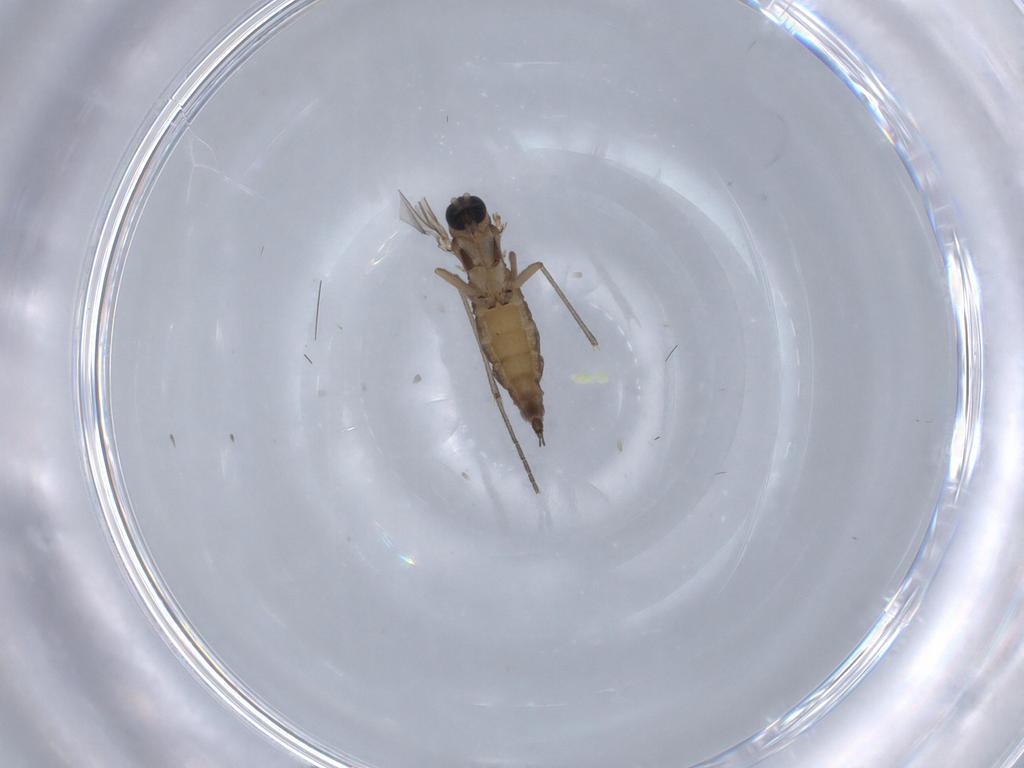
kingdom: Animalia
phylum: Arthropoda
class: Insecta
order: Diptera
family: Sciaridae
